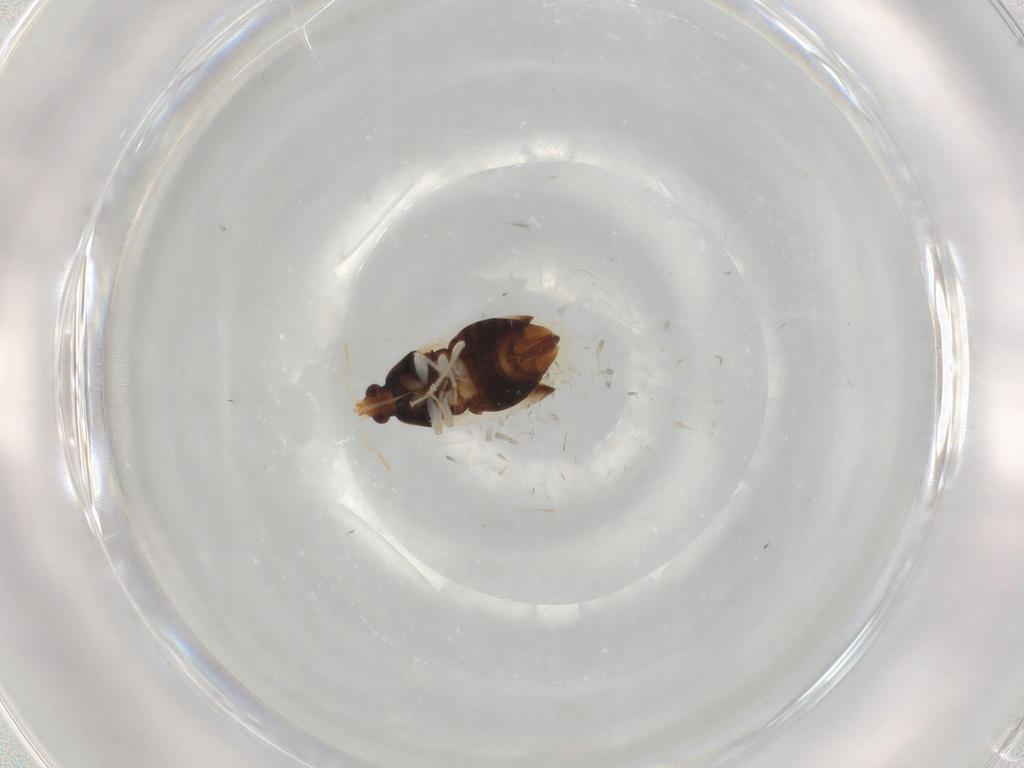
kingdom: Animalia
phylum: Arthropoda
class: Insecta
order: Hemiptera
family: Anthocoridae
